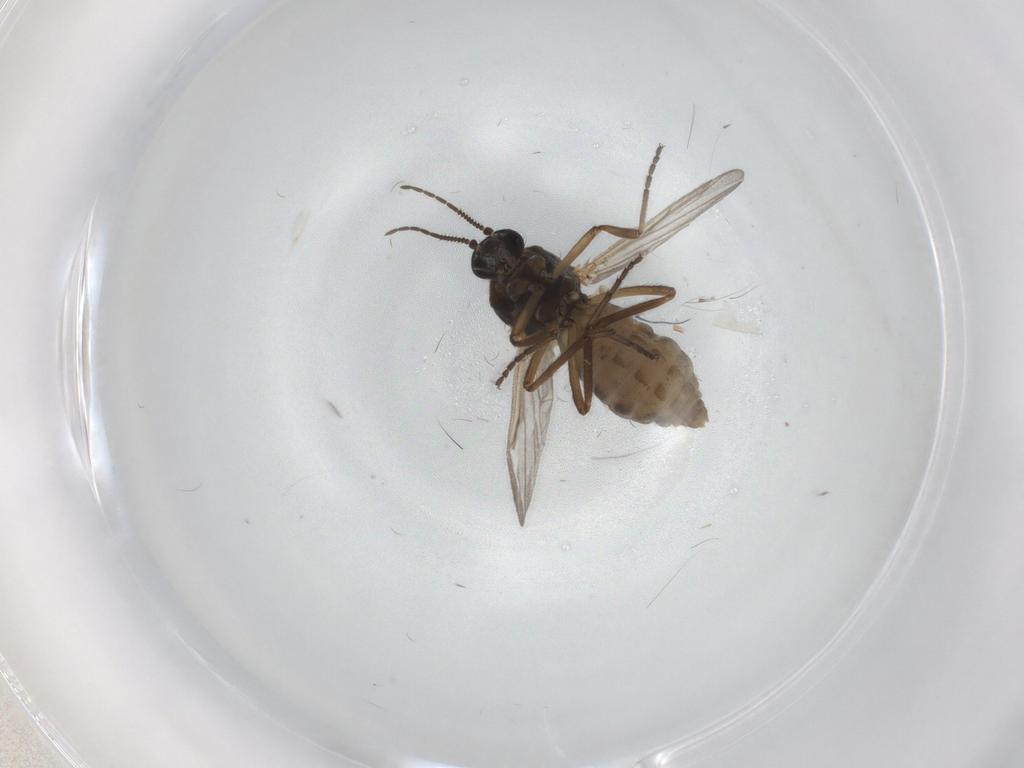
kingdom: Animalia
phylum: Arthropoda
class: Insecta
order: Diptera
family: Ceratopogonidae
